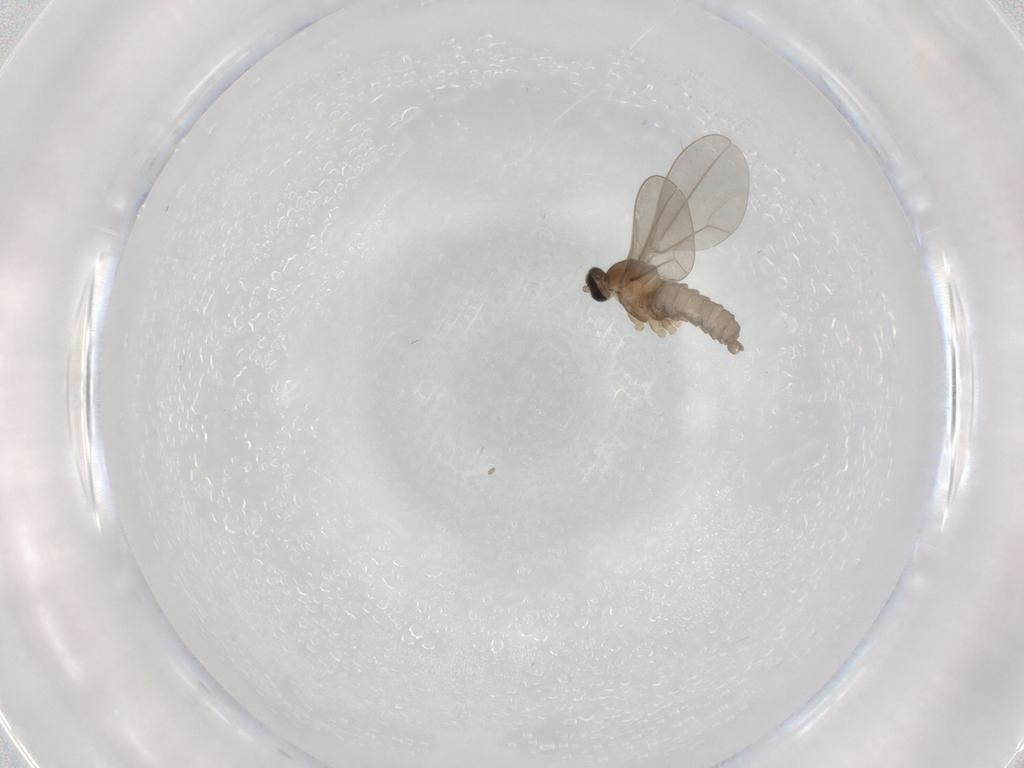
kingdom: Animalia
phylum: Arthropoda
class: Insecta
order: Diptera
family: Cecidomyiidae
